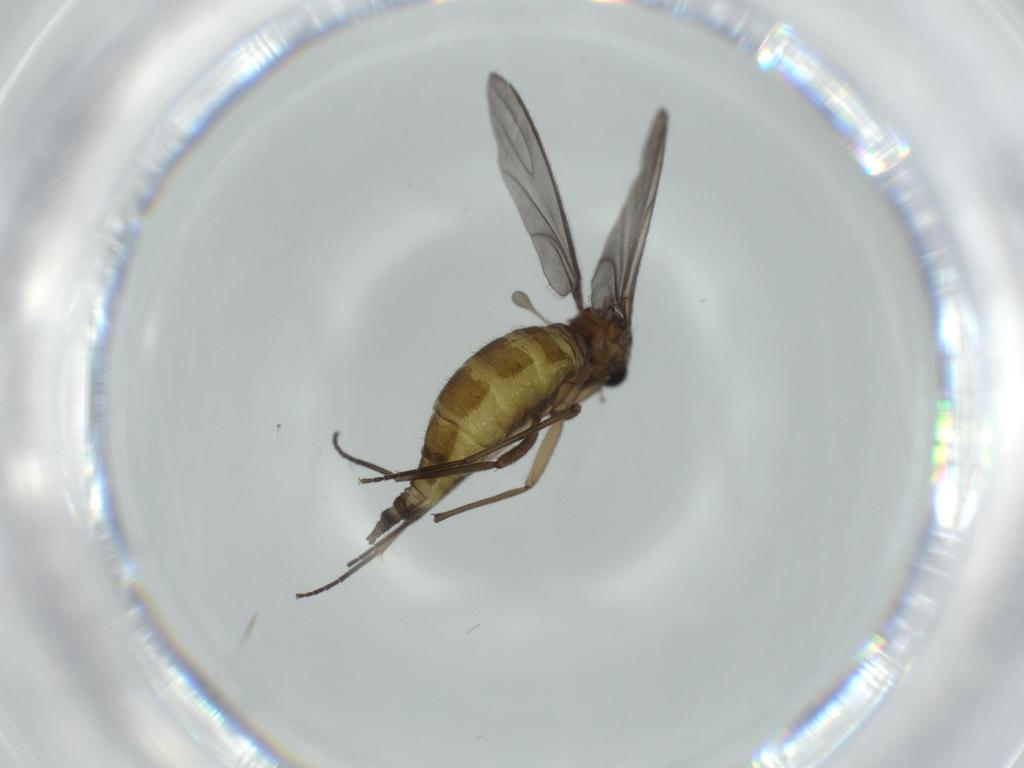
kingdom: Animalia
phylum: Arthropoda
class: Insecta
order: Diptera
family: Sciaridae
